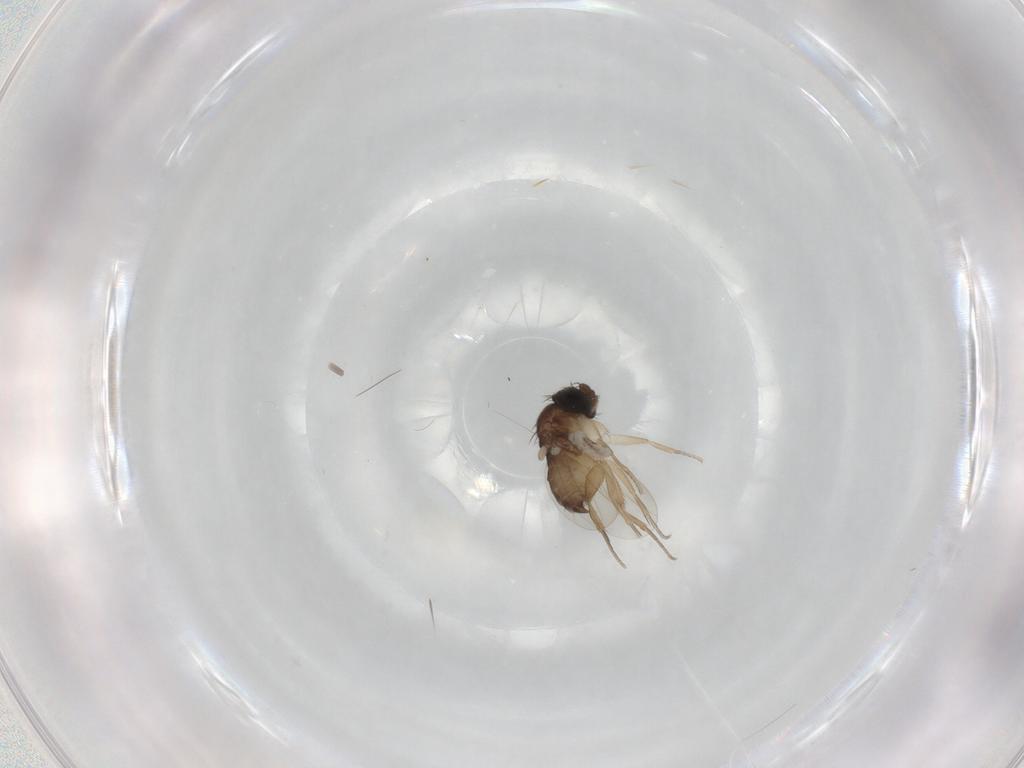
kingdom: Animalia
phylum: Arthropoda
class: Insecta
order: Diptera
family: Phoridae
